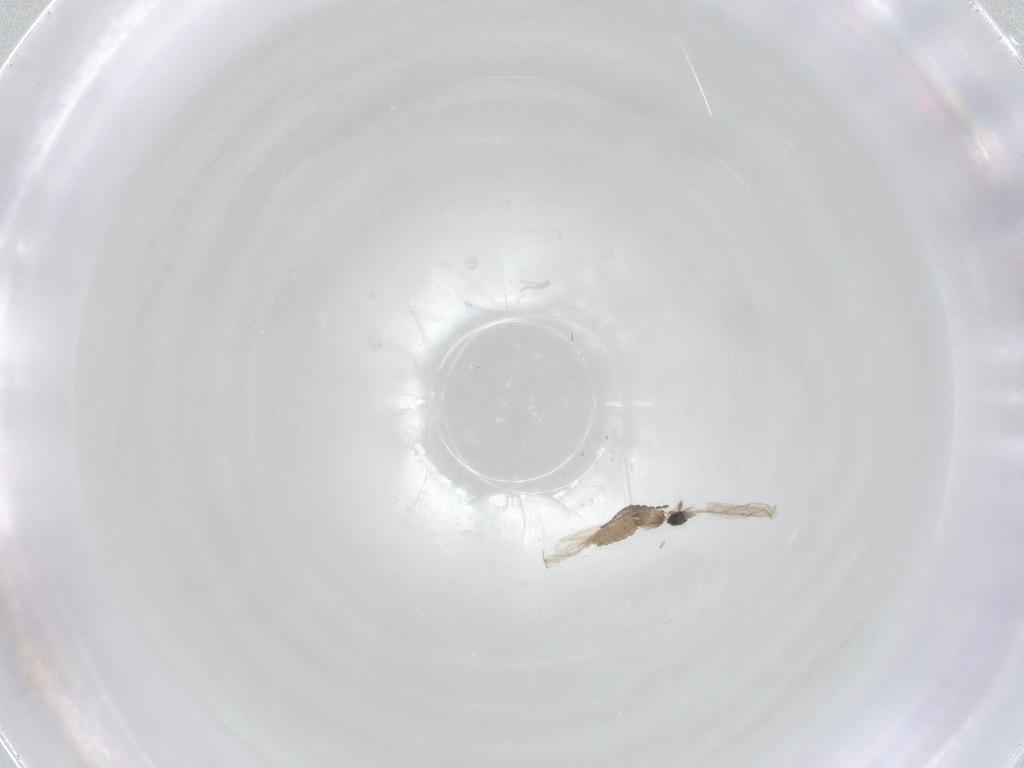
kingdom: Animalia
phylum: Arthropoda
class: Insecta
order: Diptera
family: Cecidomyiidae
